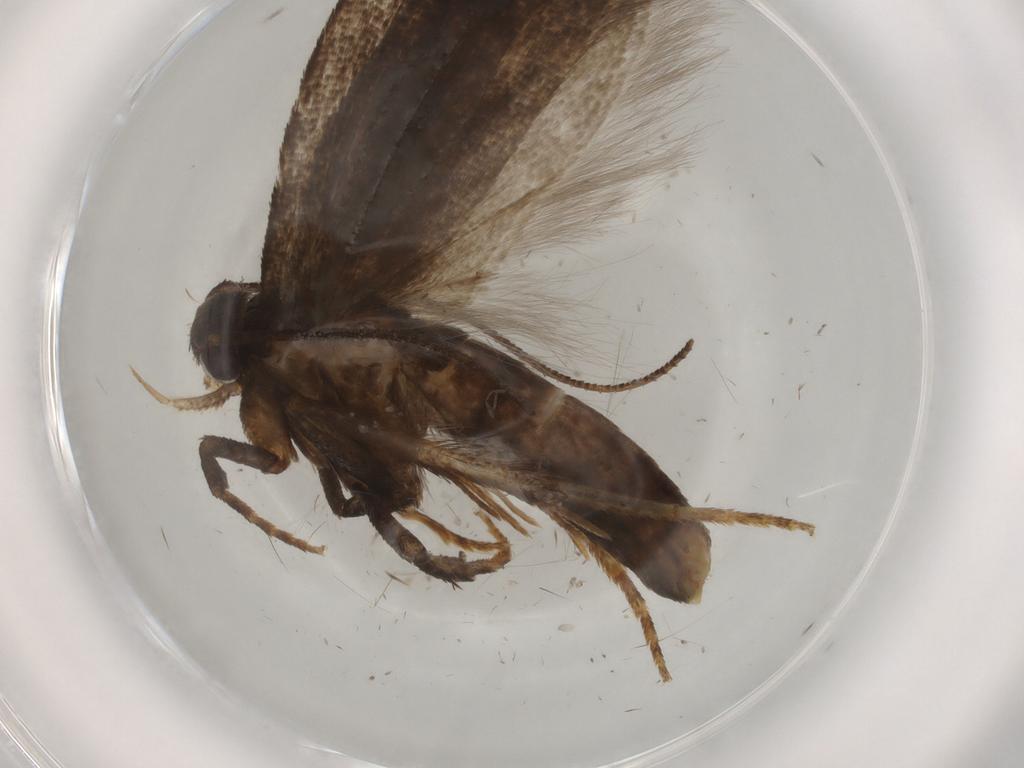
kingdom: Animalia
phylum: Arthropoda
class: Insecta
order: Lepidoptera
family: Gelechiidae
